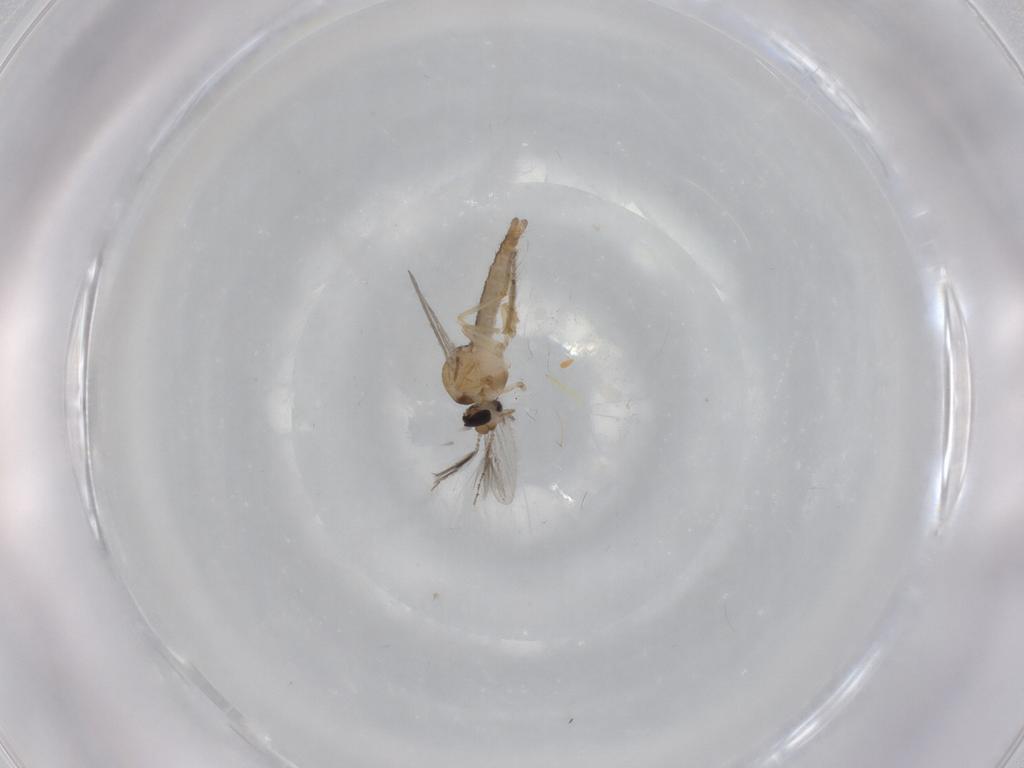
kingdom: Animalia
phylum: Arthropoda
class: Insecta
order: Diptera
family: Ceratopogonidae
